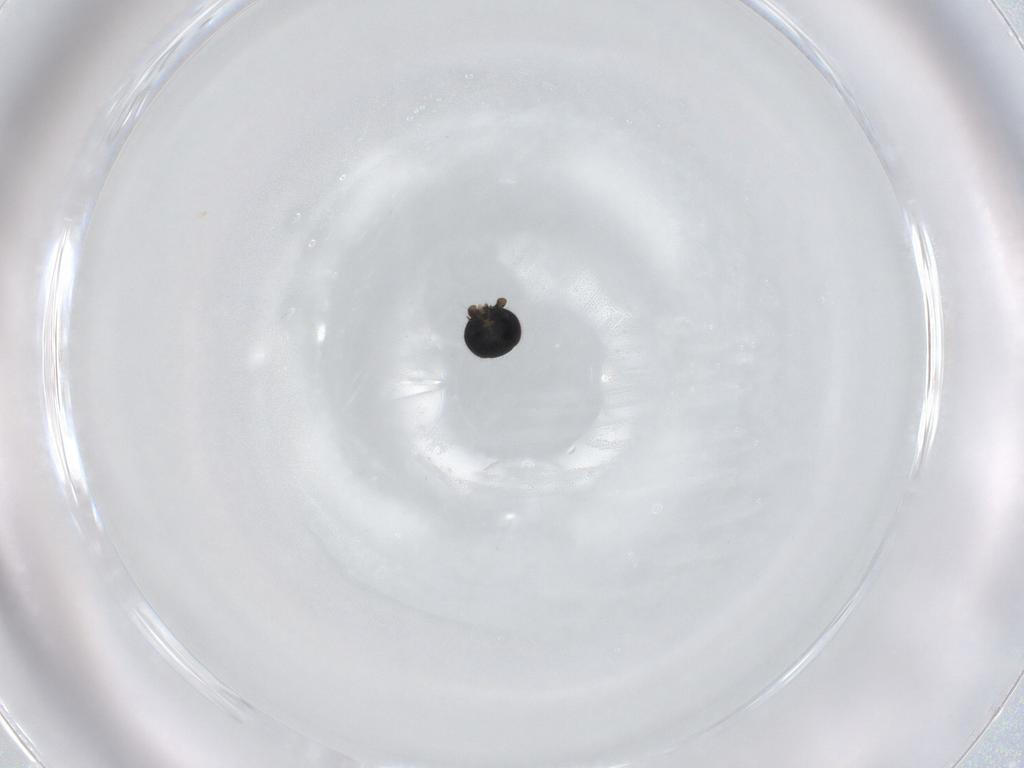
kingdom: Animalia
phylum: Arthropoda
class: Insecta
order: Hymenoptera
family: Encyrtidae
